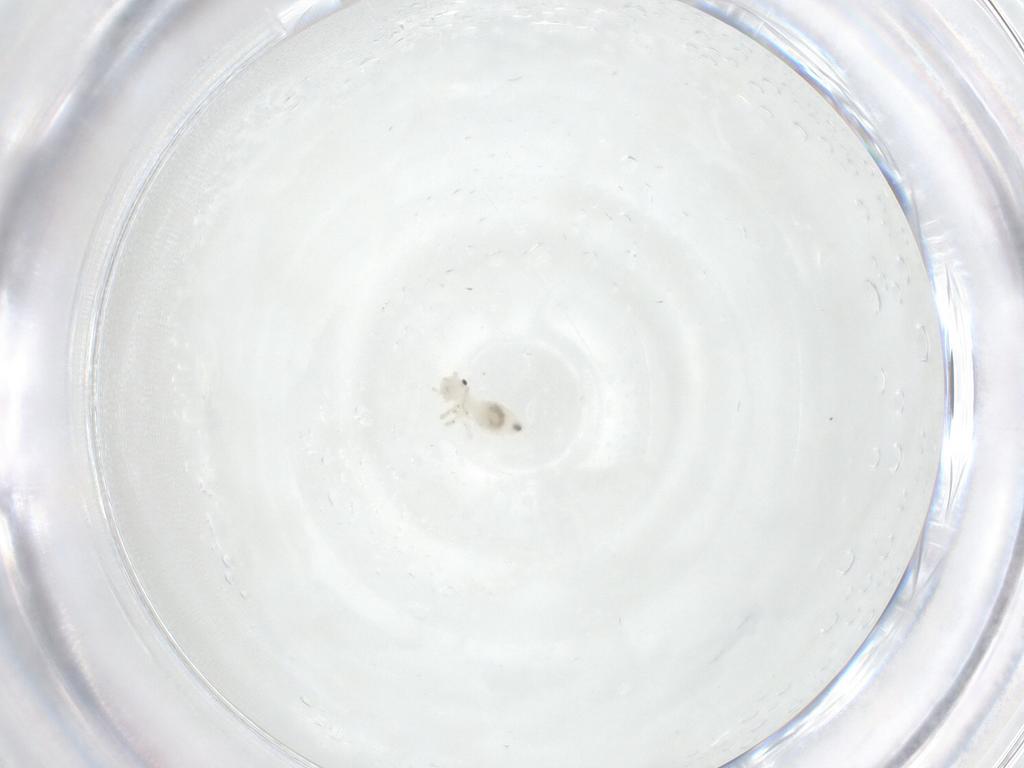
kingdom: Animalia
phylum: Arthropoda
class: Insecta
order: Psocodea
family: Caeciliusidae
